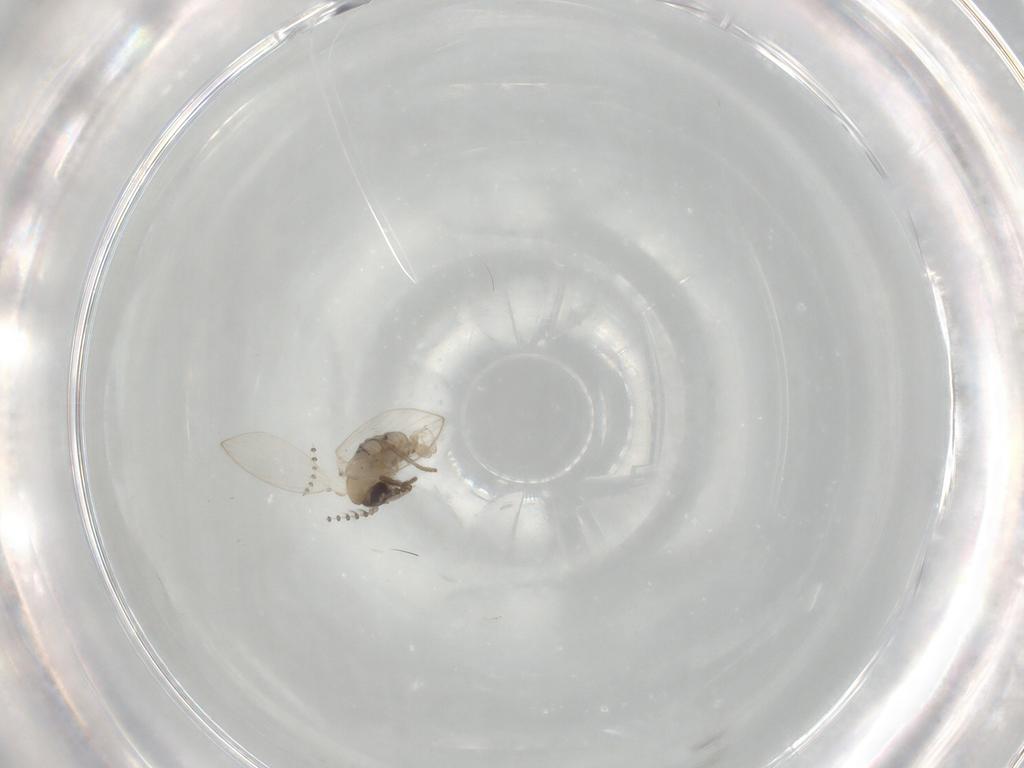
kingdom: Animalia
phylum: Arthropoda
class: Insecta
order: Diptera
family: Psychodidae
